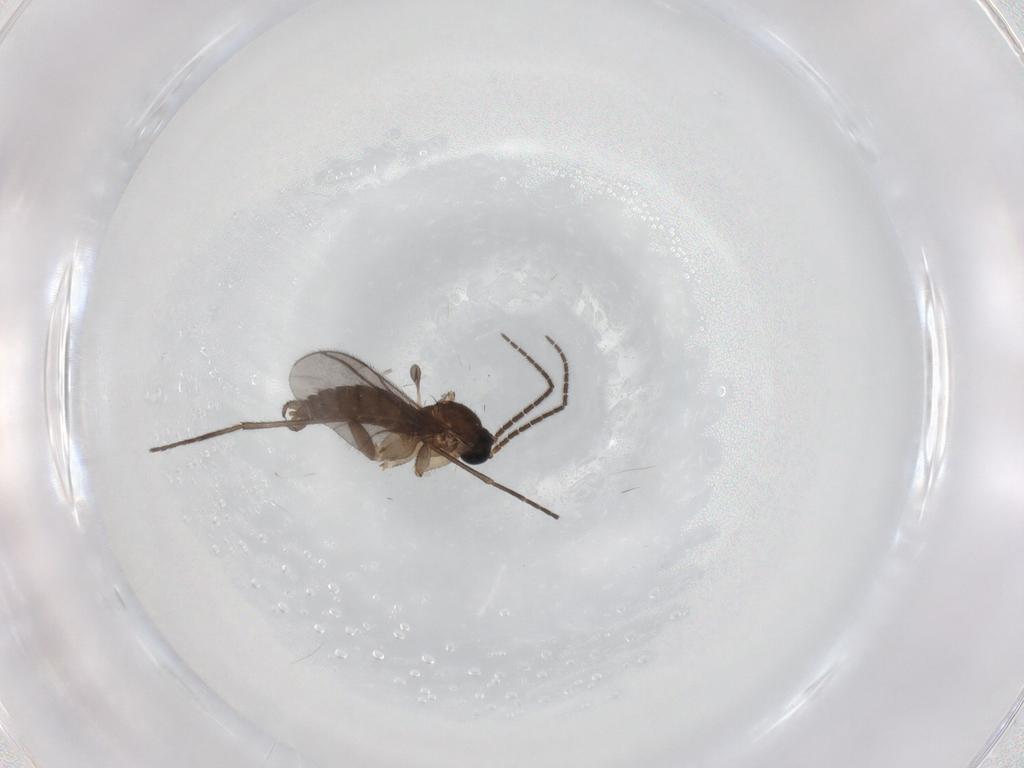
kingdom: Animalia
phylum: Arthropoda
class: Insecta
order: Diptera
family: Sciaridae
